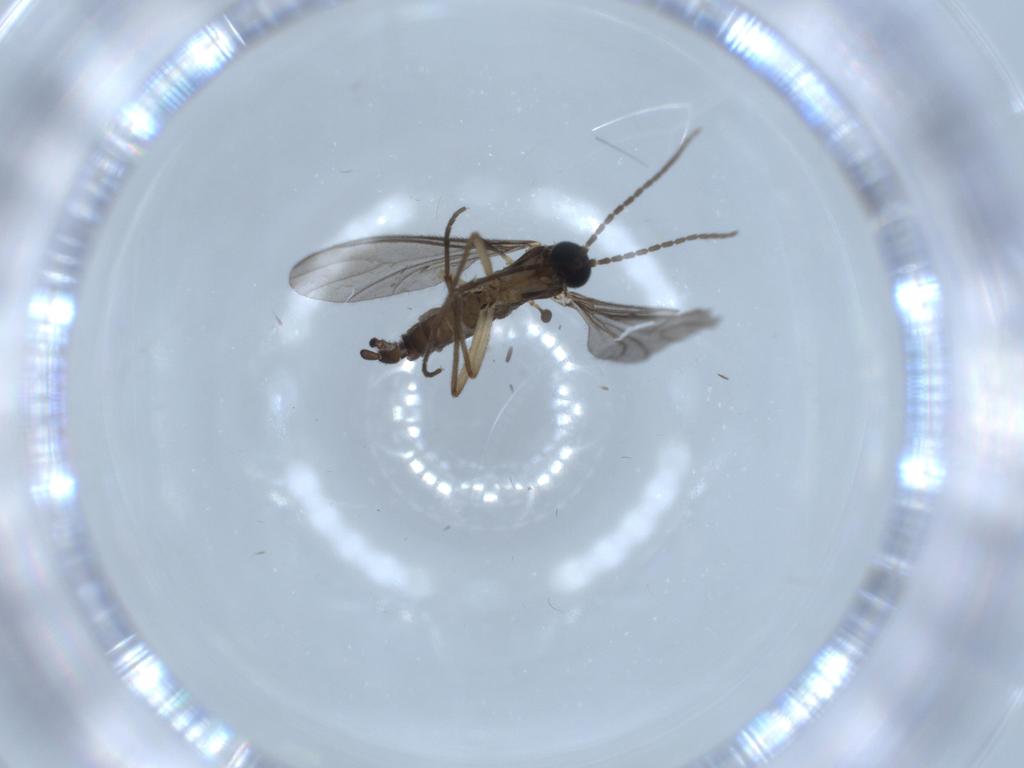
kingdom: Animalia
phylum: Arthropoda
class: Insecta
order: Diptera
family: Sciaridae
